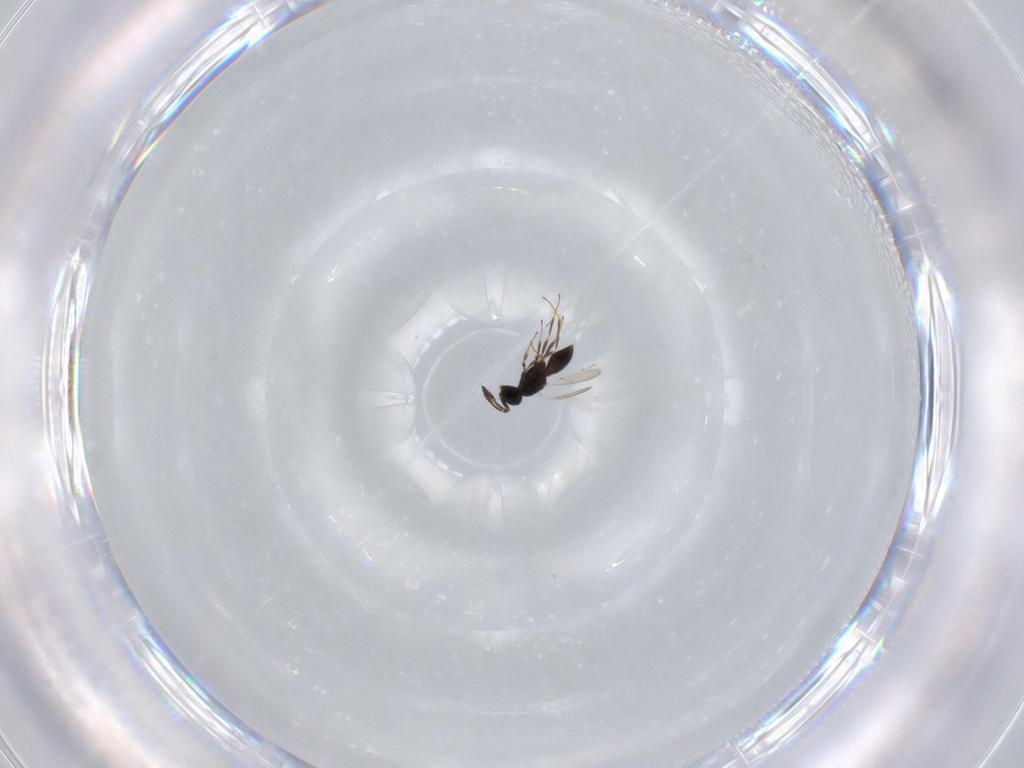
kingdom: Animalia
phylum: Arthropoda
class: Insecta
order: Hymenoptera
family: Scelionidae
